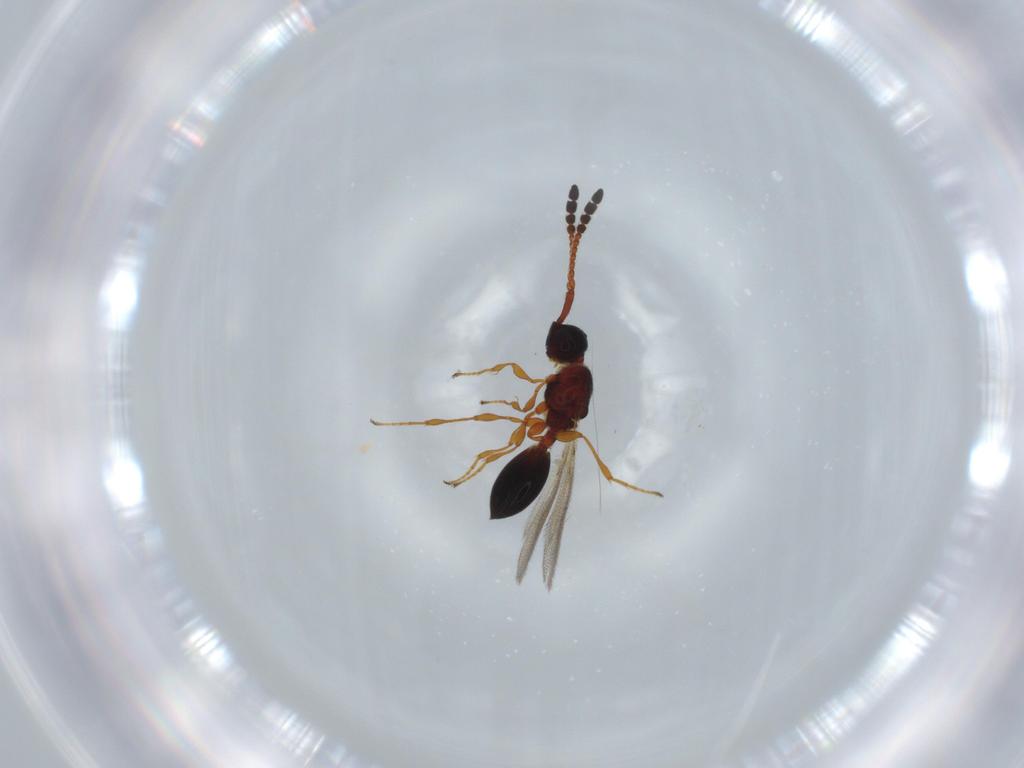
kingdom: Animalia
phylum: Arthropoda
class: Insecta
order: Hymenoptera
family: Diapriidae
